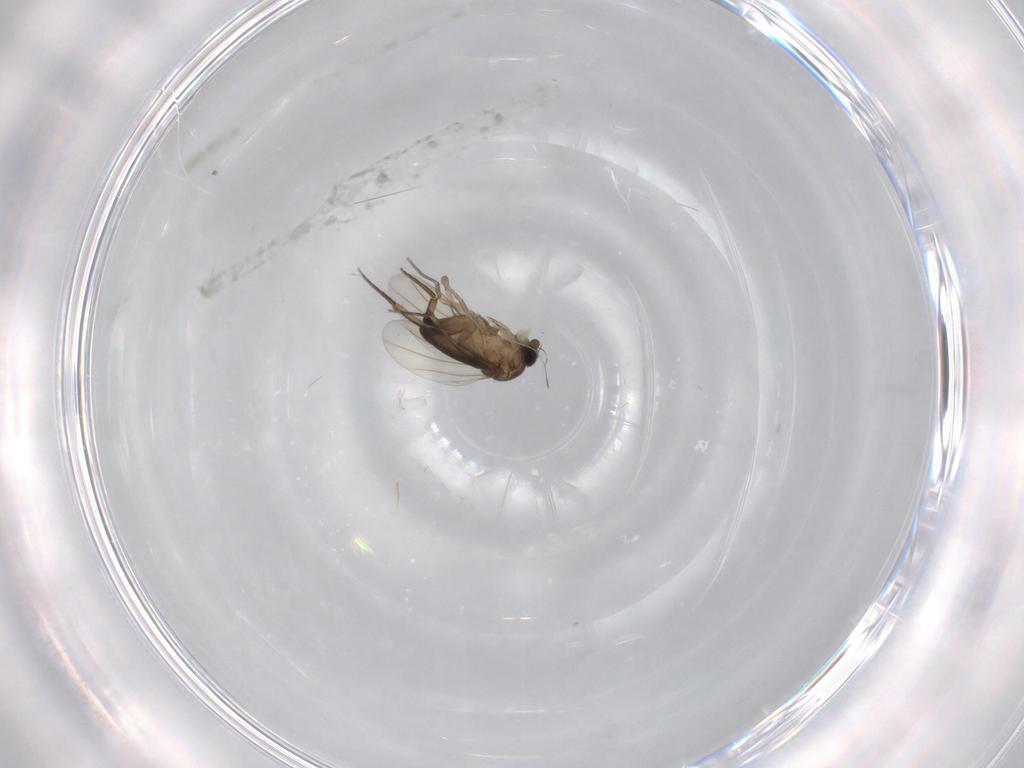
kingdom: Animalia
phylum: Arthropoda
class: Insecta
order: Diptera
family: Phoridae
